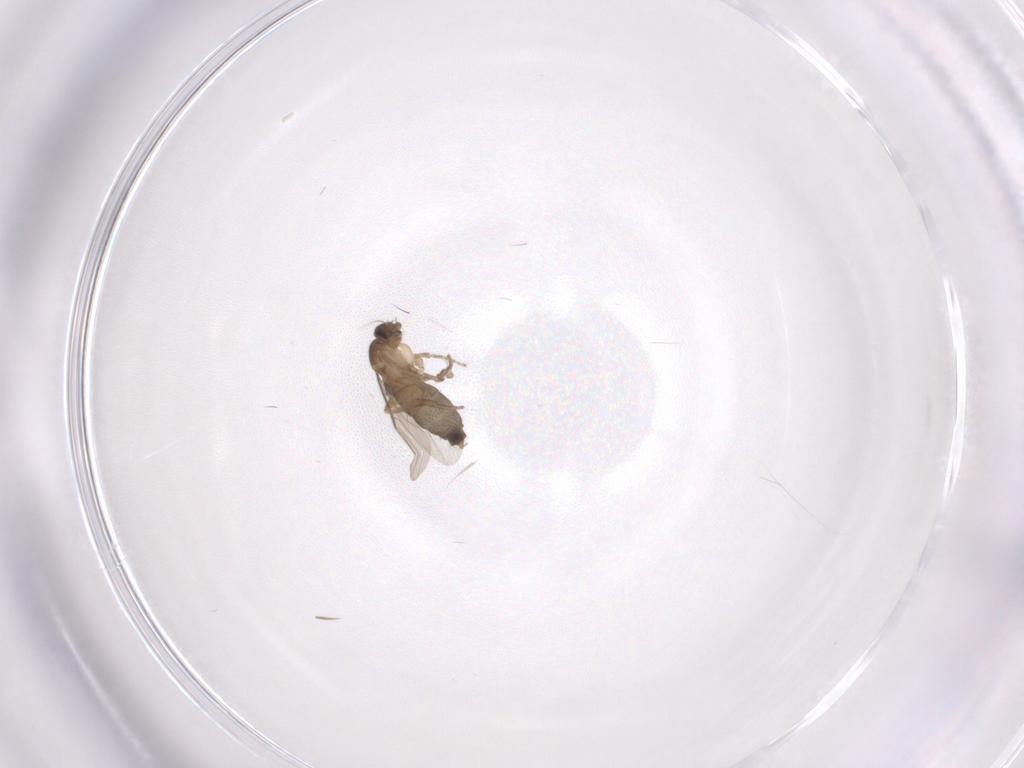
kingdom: Animalia
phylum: Arthropoda
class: Insecta
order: Diptera
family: Phoridae
